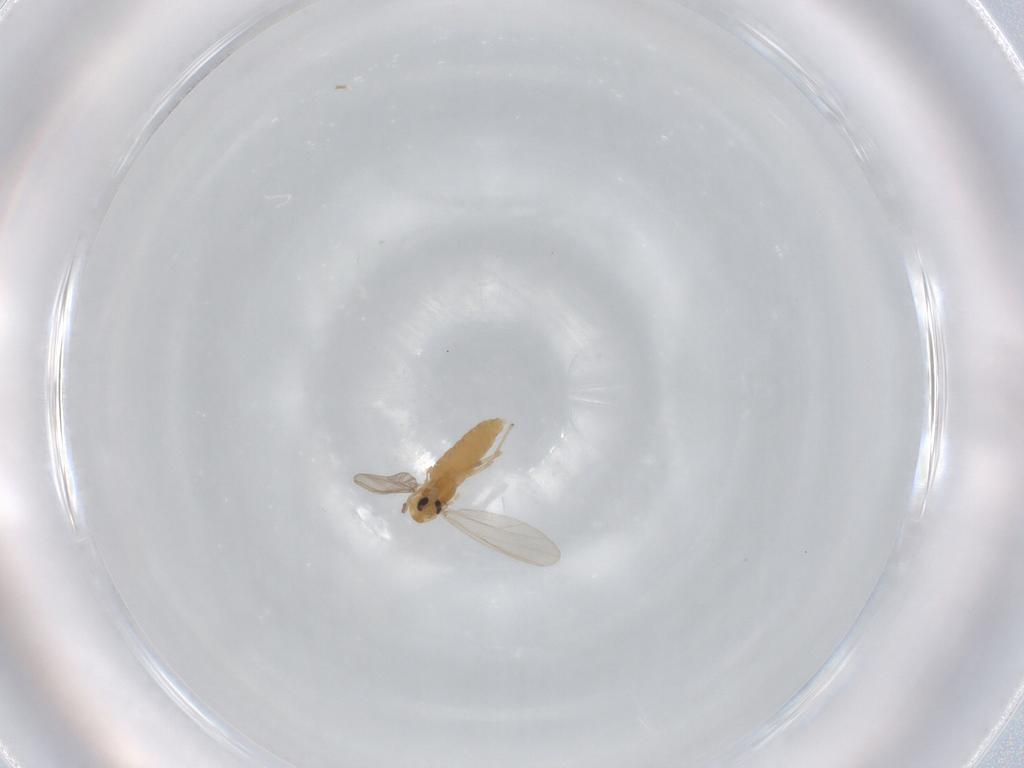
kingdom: Animalia
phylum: Arthropoda
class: Insecta
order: Diptera
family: Chironomidae
